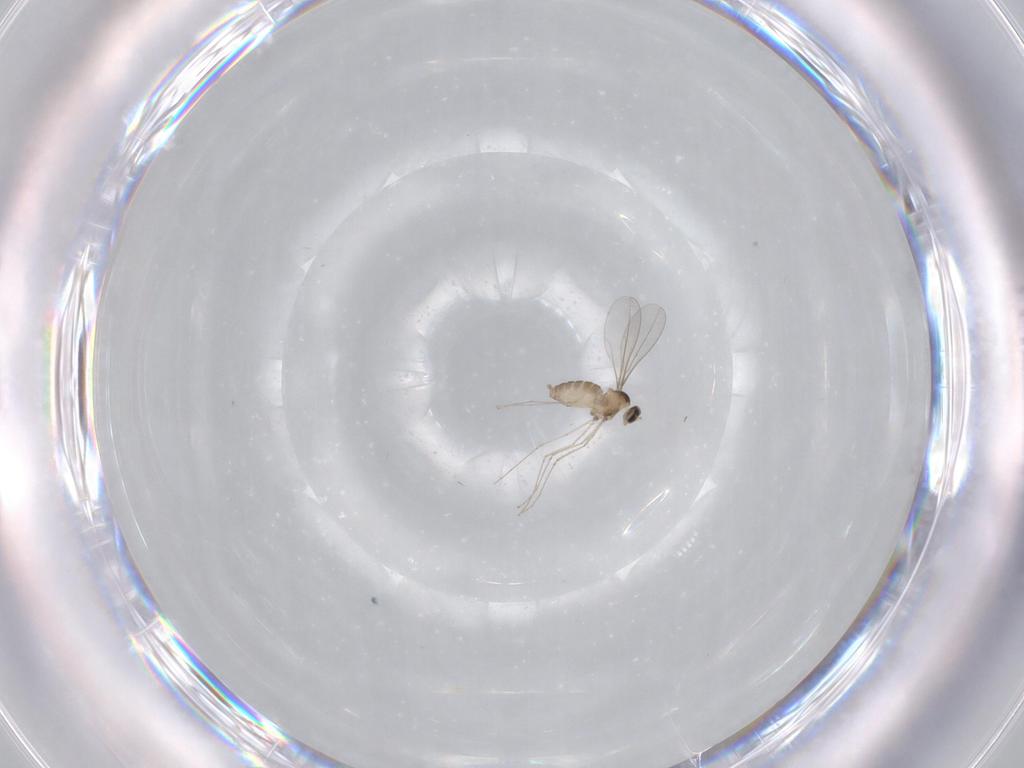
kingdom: Animalia
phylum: Arthropoda
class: Insecta
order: Diptera
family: Cecidomyiidae
